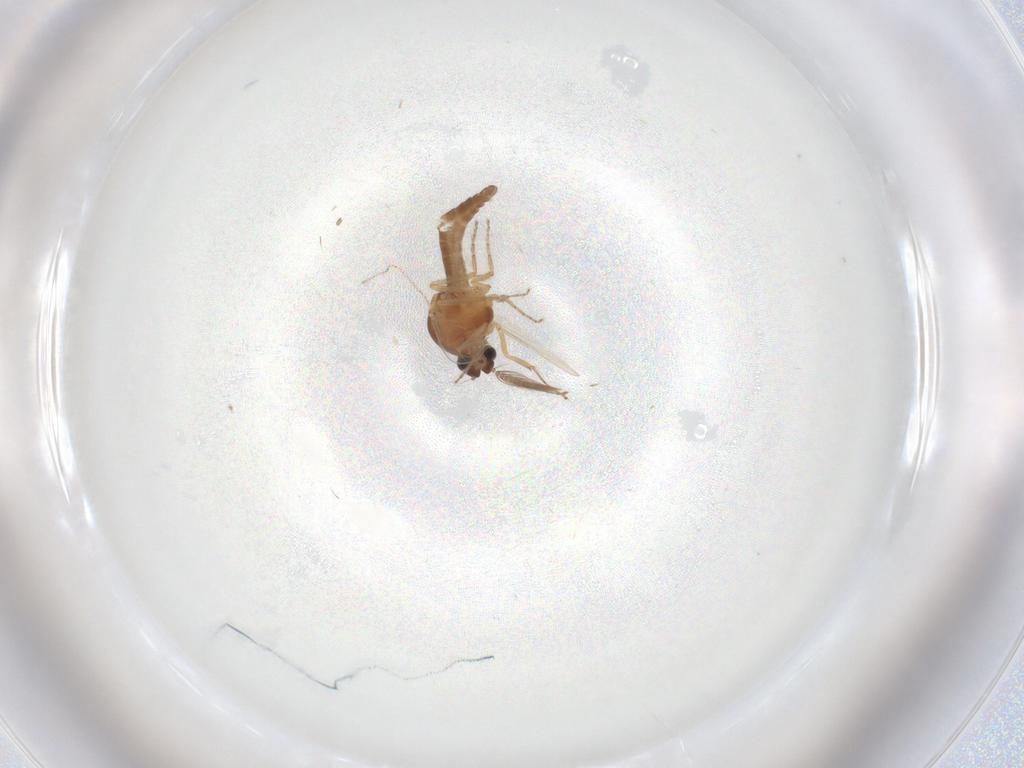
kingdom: Animalia
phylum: Arthropoda
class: Insecta
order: Diptera
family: Ceratopogonidae
